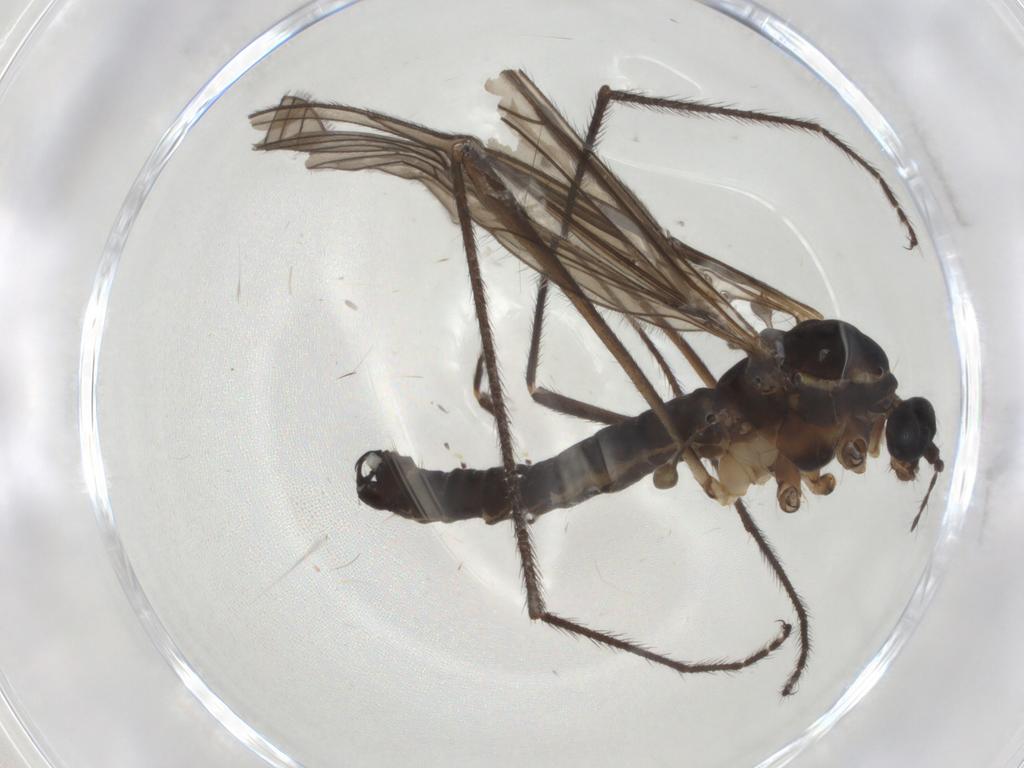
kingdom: Animalia
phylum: Arthropoda
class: Insecta
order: Diptera
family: Limoniidae
